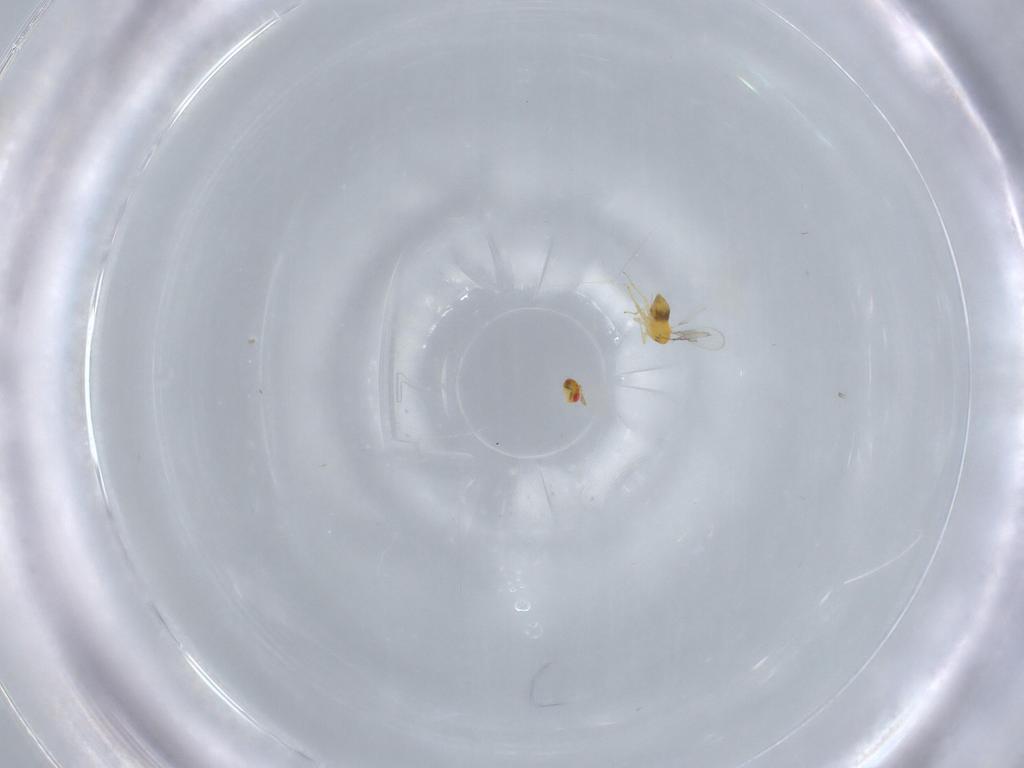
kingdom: Animalia
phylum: Arthropoda
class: Insecta
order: Hymenoptera
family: Trichogrammatidae
